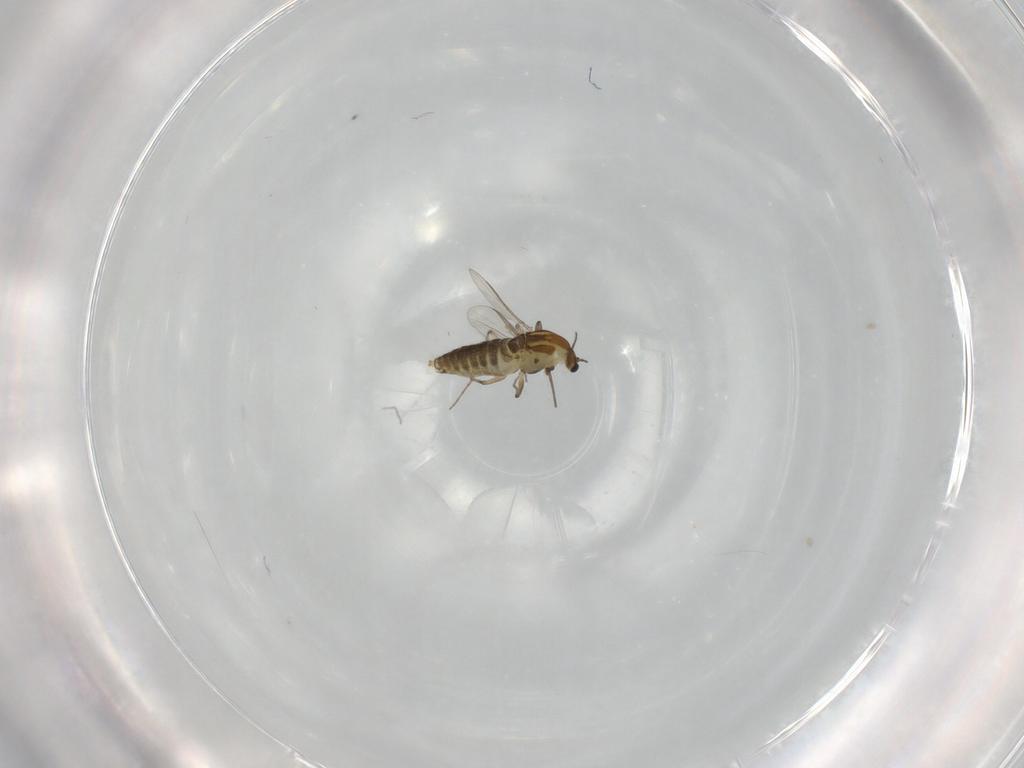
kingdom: Animalia
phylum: Arthropoda
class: Insecta
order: Diptera
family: Chironomidae
